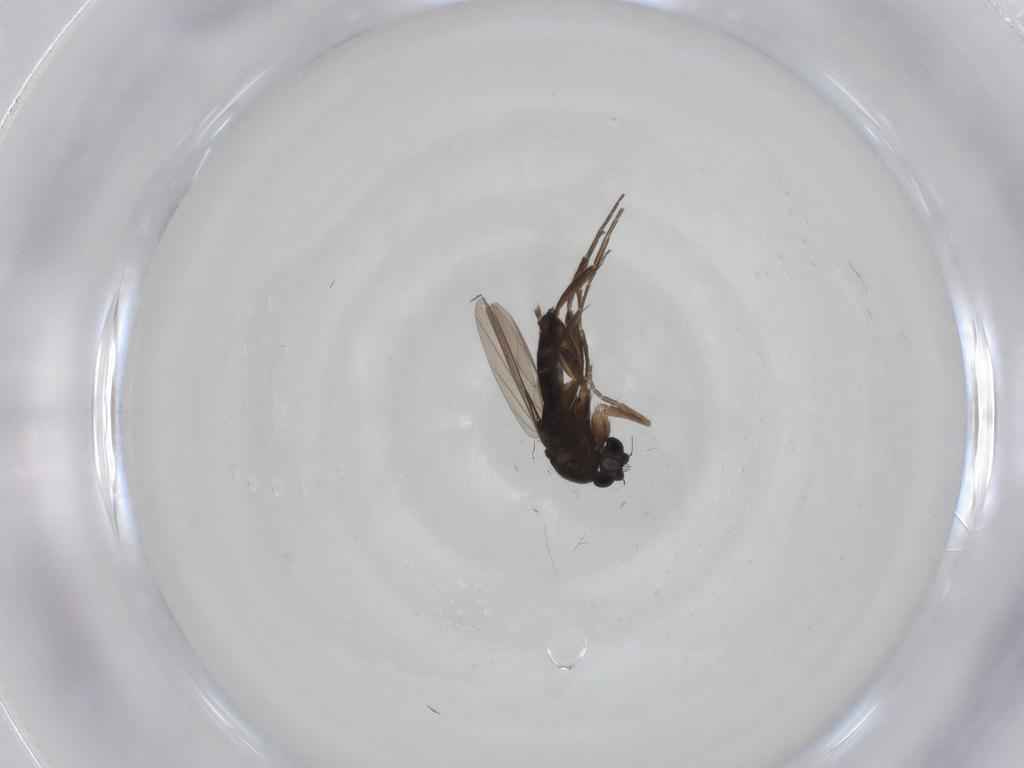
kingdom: Animalia
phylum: Arthropoda
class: Insecta
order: Diptera
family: Phoridae
